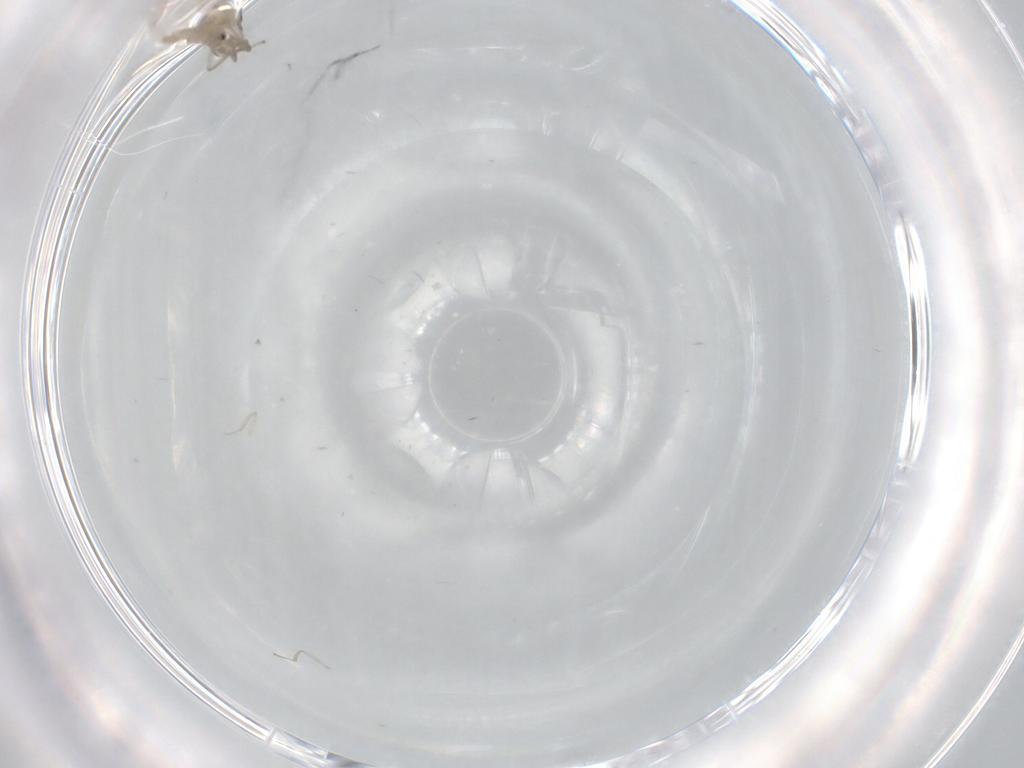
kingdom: Animalia
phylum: Arthropoda
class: Insecta
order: Diptera
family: Cecidomyiidae
